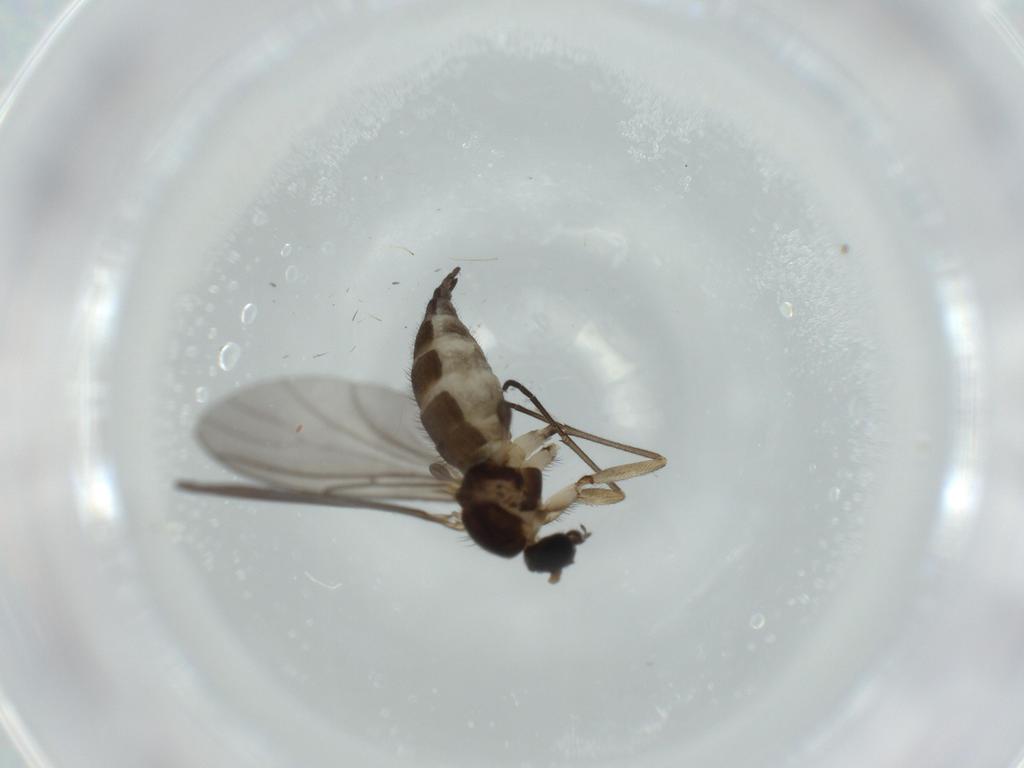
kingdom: Animalia
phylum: Arthropoda
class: Insecta
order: Diptera
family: Sciaridae
